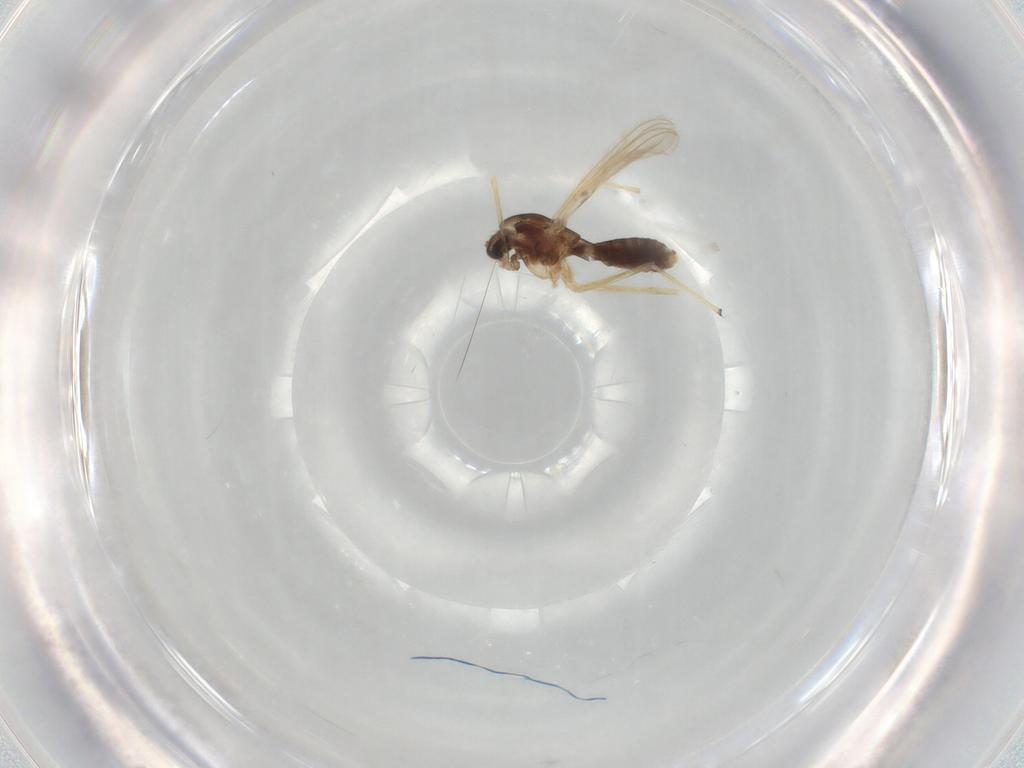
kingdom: Animalia
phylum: Arthropoda
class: Insecta
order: Diptera
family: Chironomidae
